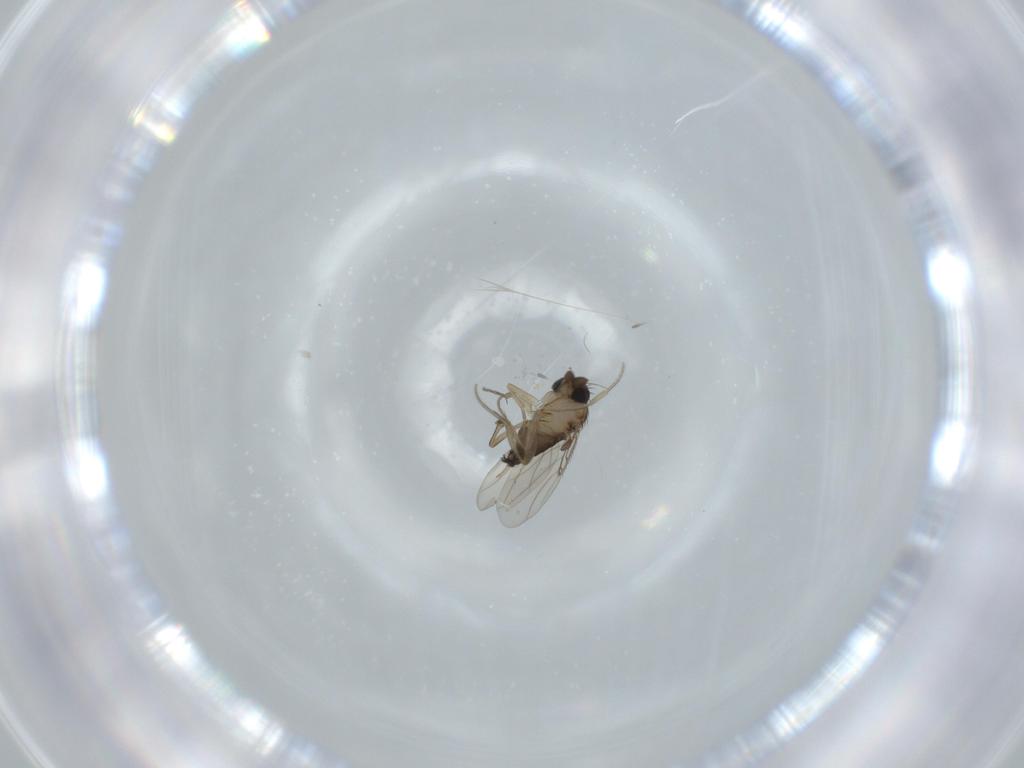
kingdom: Animalia
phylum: Arthropoda
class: Insecta
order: Diptera
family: Phoridae
